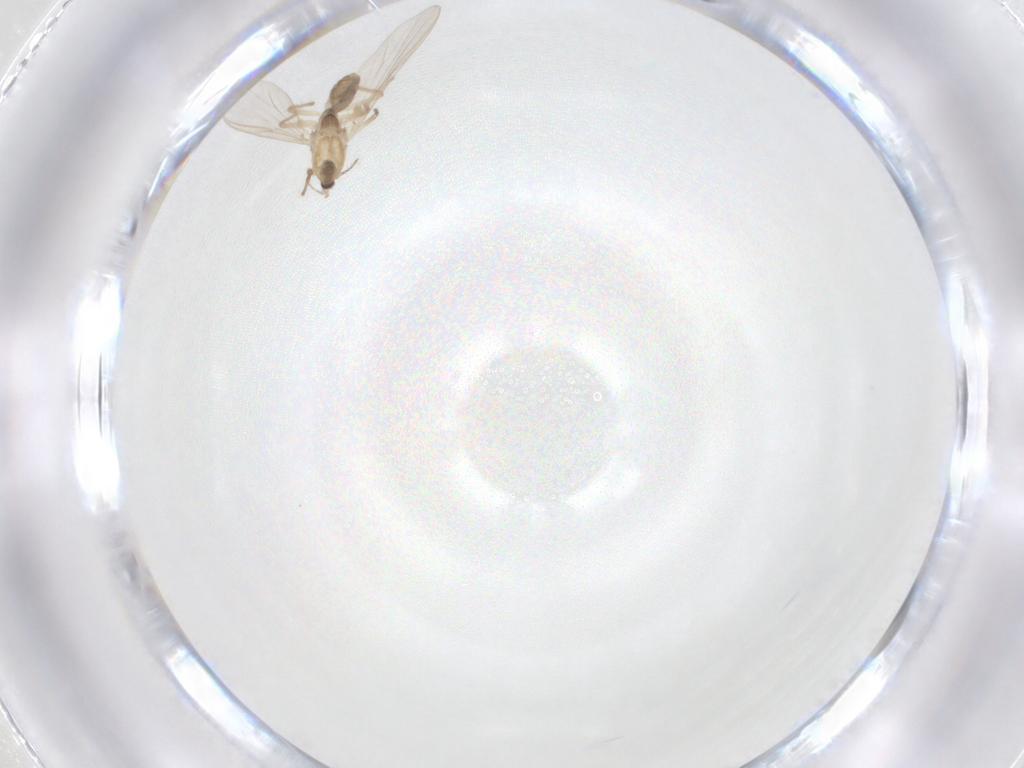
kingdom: Animalia
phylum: Arthropoda
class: Insecta
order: Diptera
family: Chironomidae
